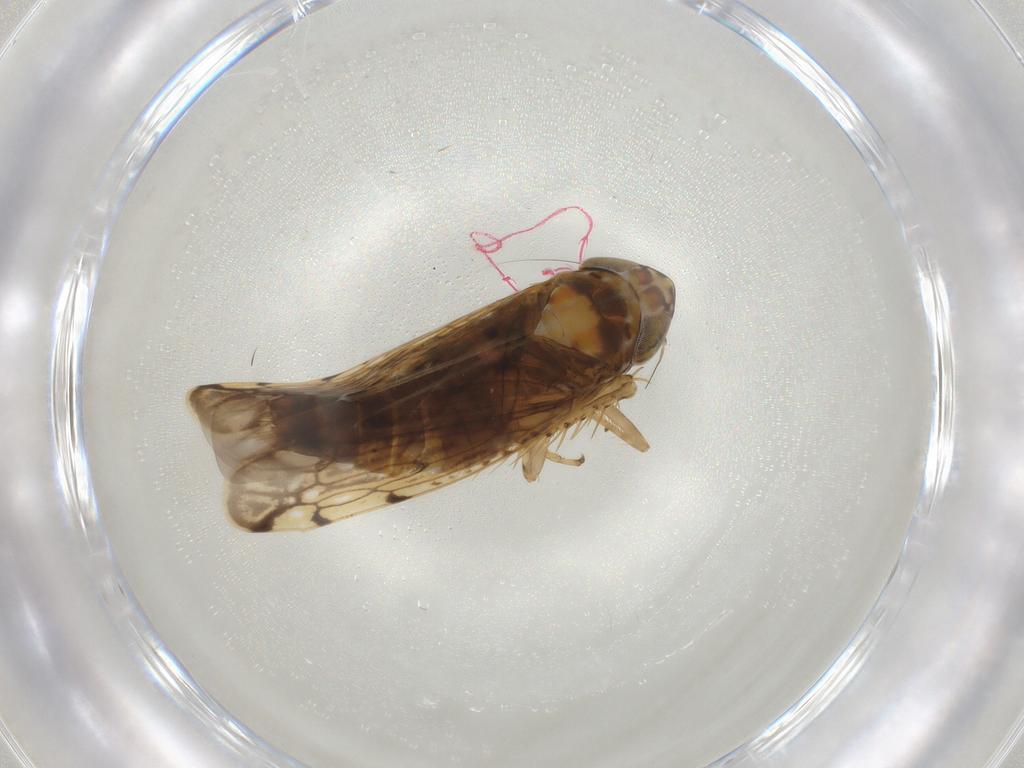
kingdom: Animalia
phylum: Arthropoda
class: Insecta
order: Hemiptera
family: Cicadellidae
